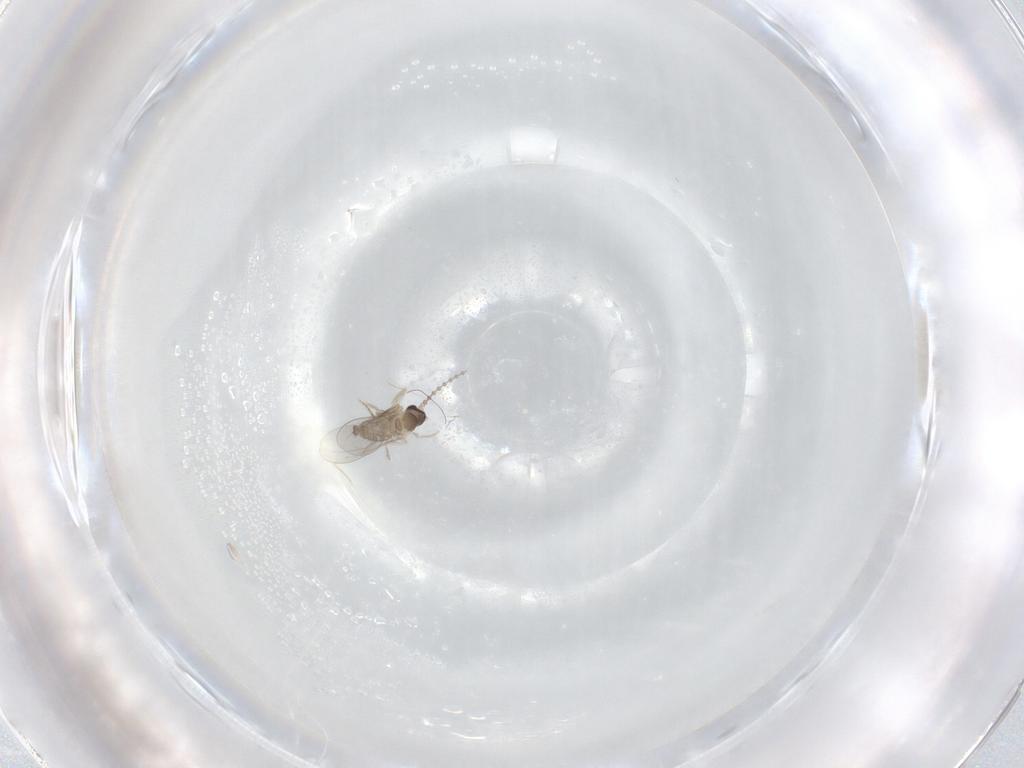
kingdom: Animalia
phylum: Arthropoda
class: Insecta
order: Diptera
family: Cecidomyiidae
